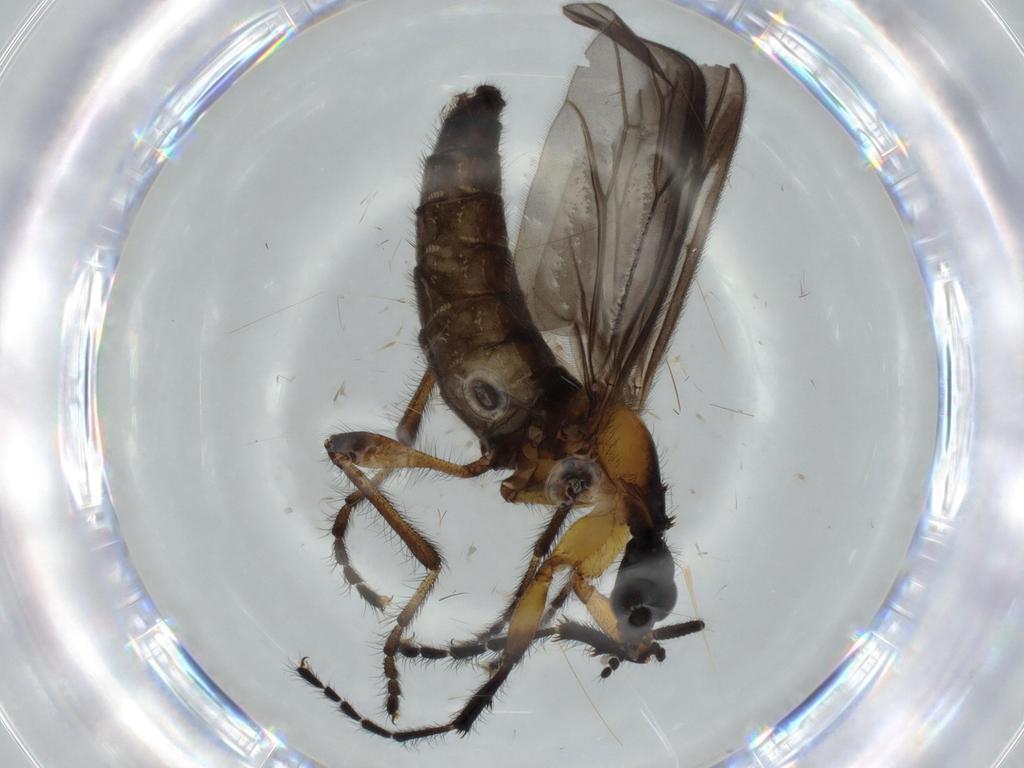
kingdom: Animalia
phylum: Arthropoda
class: Insecta
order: Diptera
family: Bibionidae
